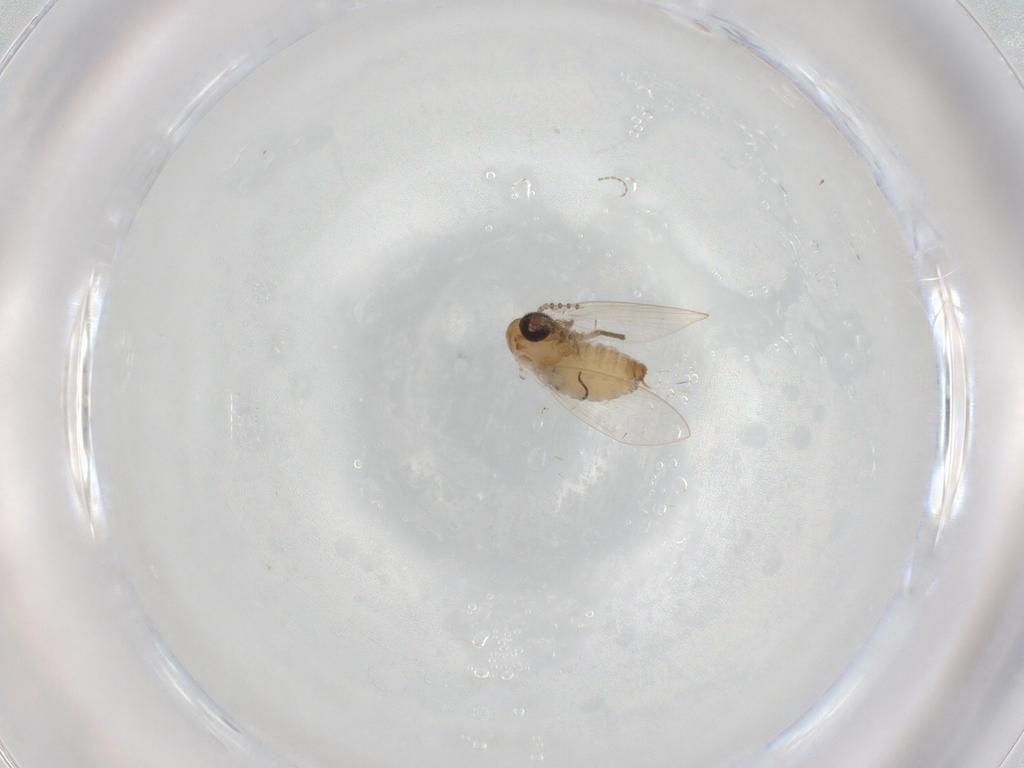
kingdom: Animalia
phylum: Arthropoda
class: Insecta
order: Diptera
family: Psychodidae
